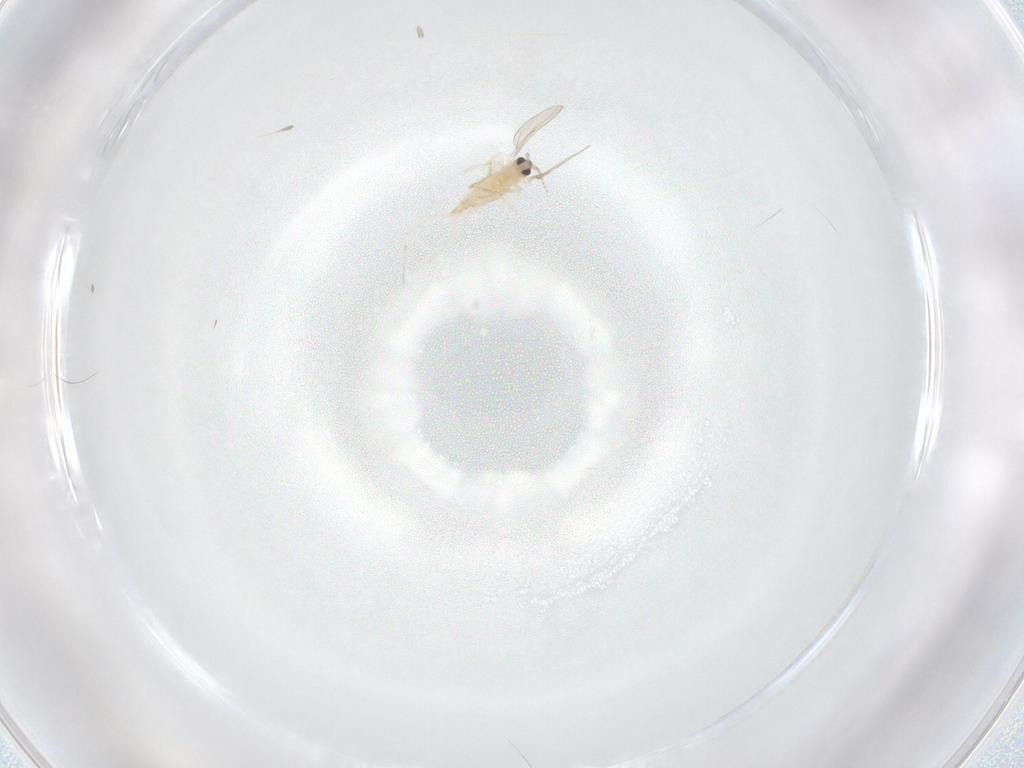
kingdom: Animalia
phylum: Arthropoda
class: Insecta
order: Diptera
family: Cecidomyiidae
